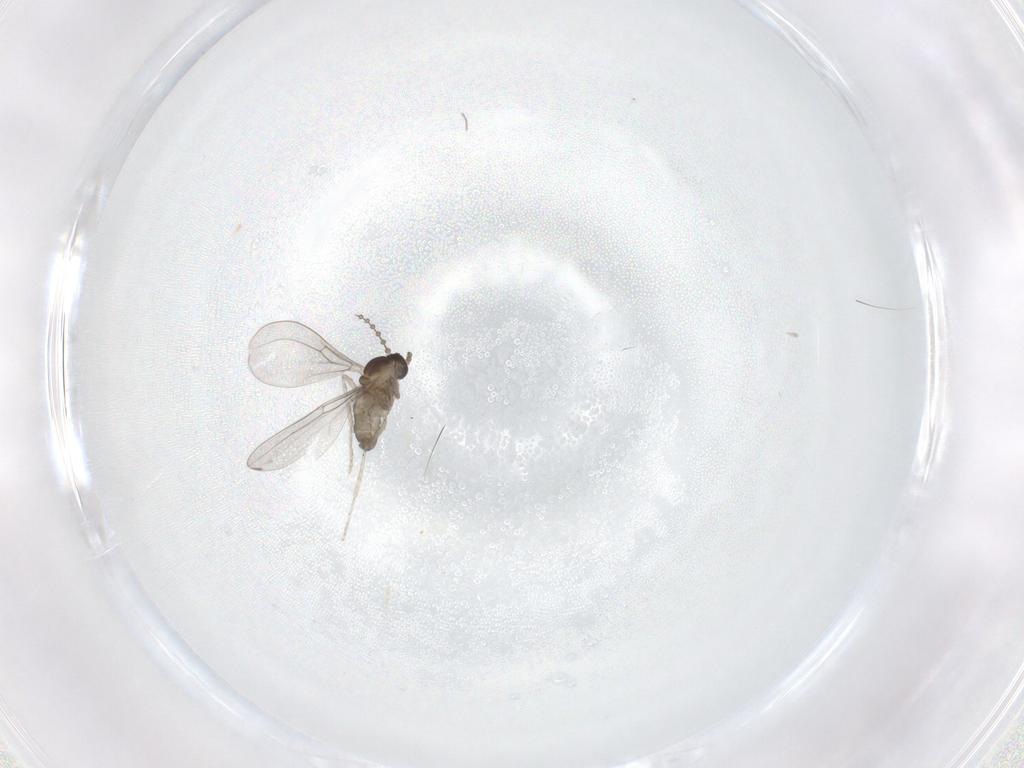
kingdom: Animalia
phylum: Arthropoda
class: Insecta
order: Diptera
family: Cecidomyiidae
